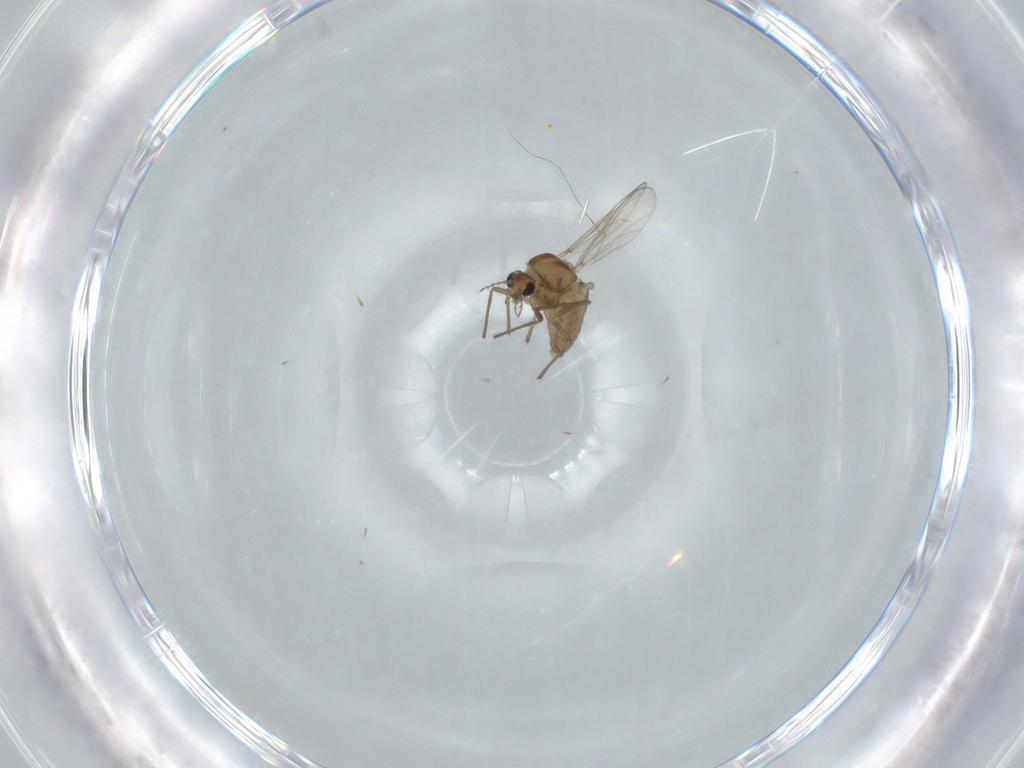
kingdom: Animalia
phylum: Arthropoda
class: Insecta
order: Diptera
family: Chironomidae
